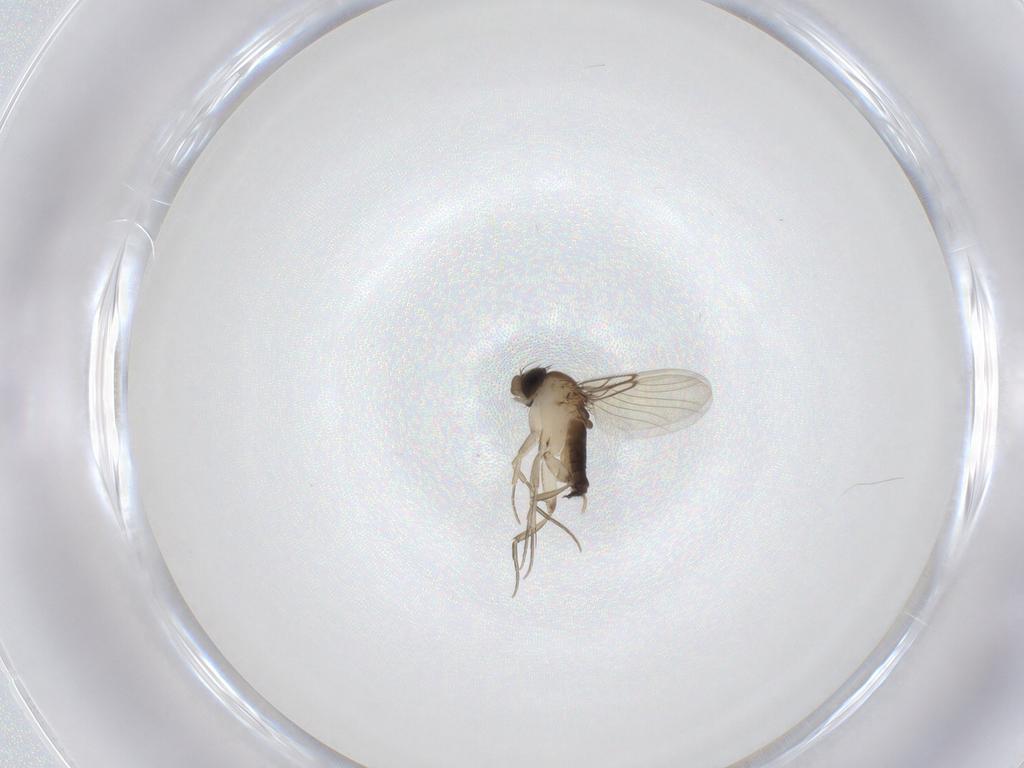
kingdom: Animalia
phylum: Arthropoda
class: Insecta
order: Diptera
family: Phoridae
